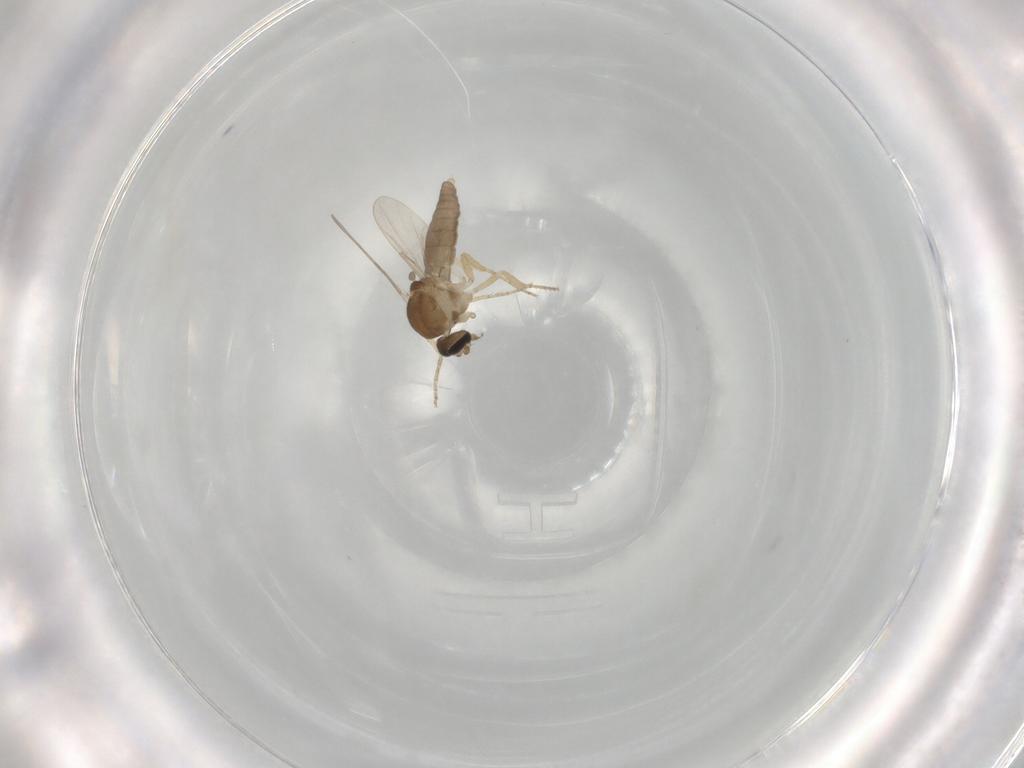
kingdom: Animalia
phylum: Arthropoda
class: Insecta
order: Diptera
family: Ceratopogonidae
